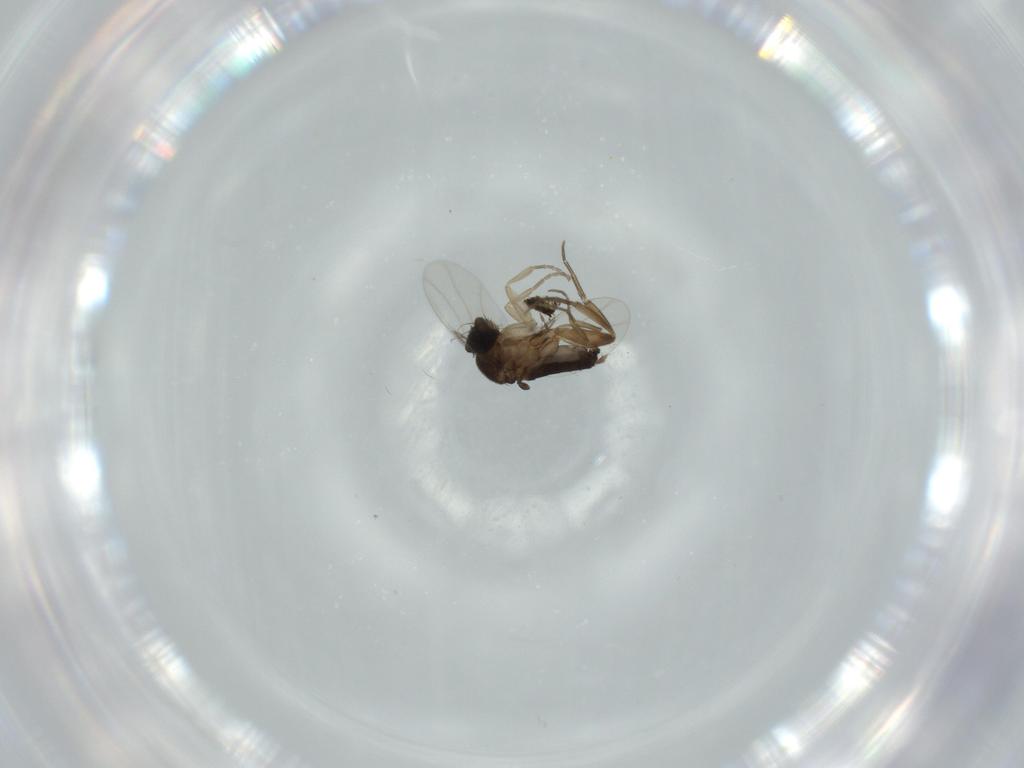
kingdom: Animalia
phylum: Arthropoda
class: Insecta
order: Diptera
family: Phoridae
